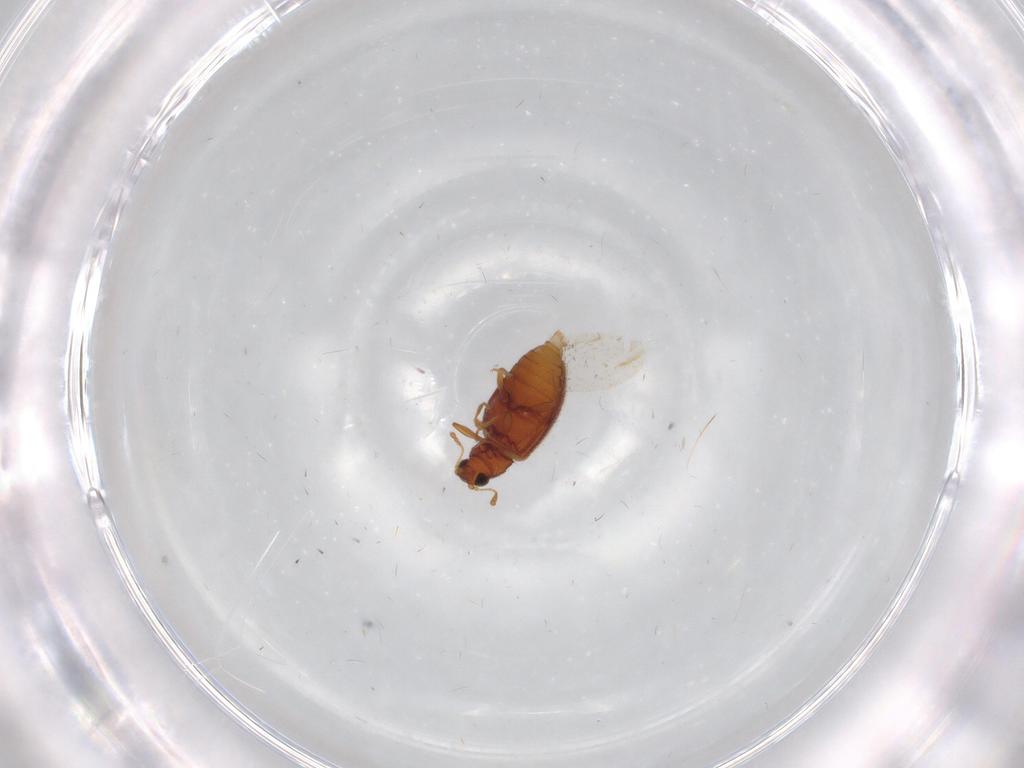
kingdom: Animalia
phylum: Arthropoda
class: Insecta
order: Coleoptera
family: Latridiidae
